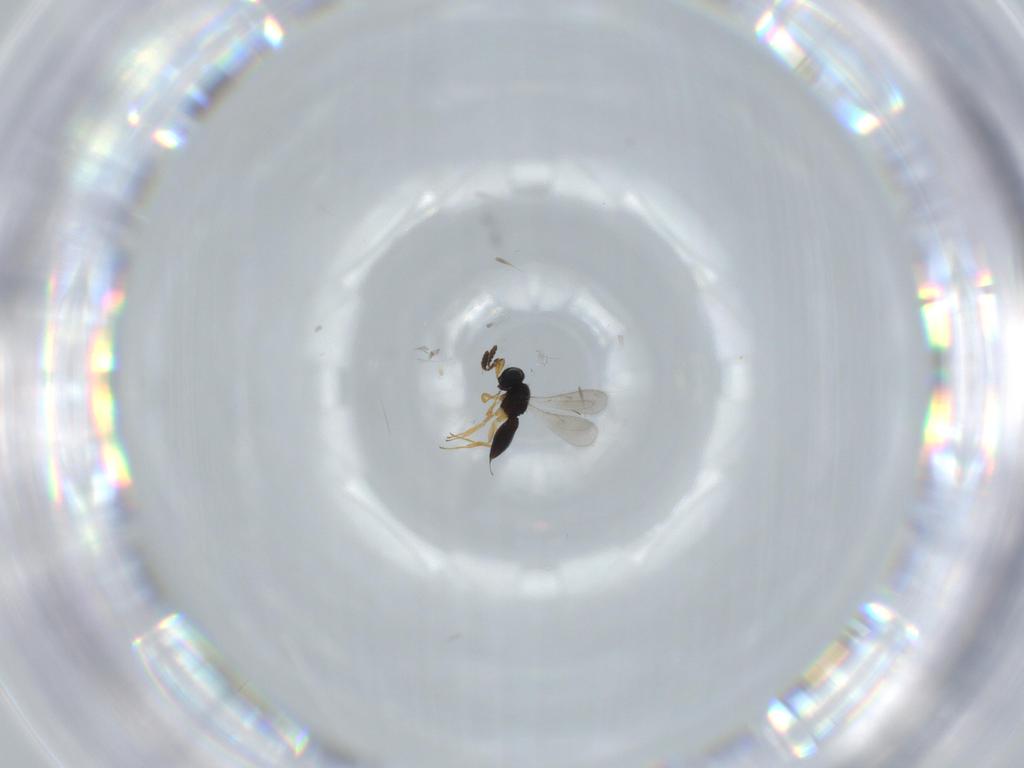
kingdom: Animalia
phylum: Arthropoda
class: Insecta
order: Hymenoptera
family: Scelionidae
